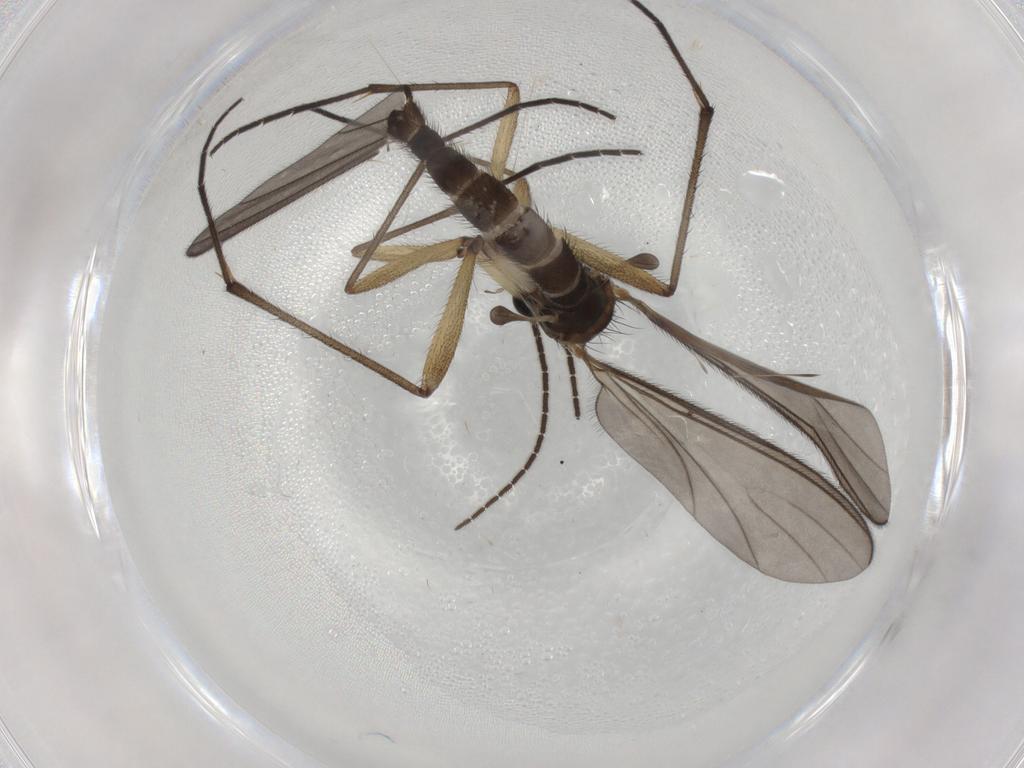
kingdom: Animalia
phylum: Arthropoda
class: Insecta
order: Diptera
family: Sciaridae
